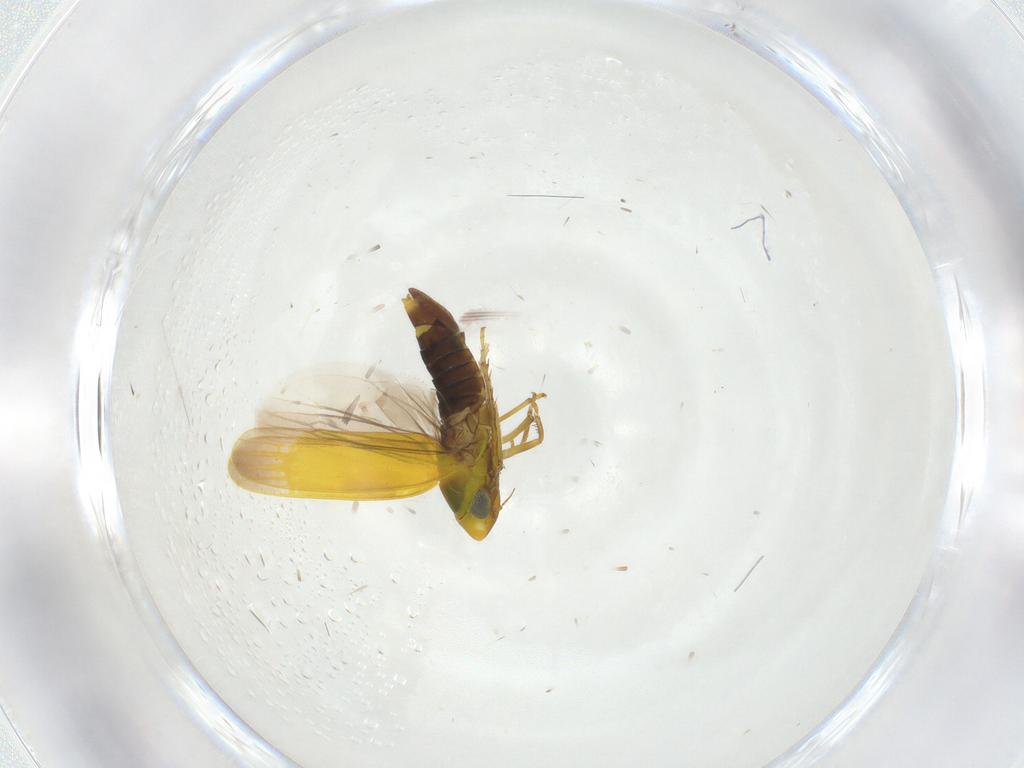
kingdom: Animalia
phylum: Arthropoda
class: Insecta
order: Hemiptera
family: Cicadellidae
